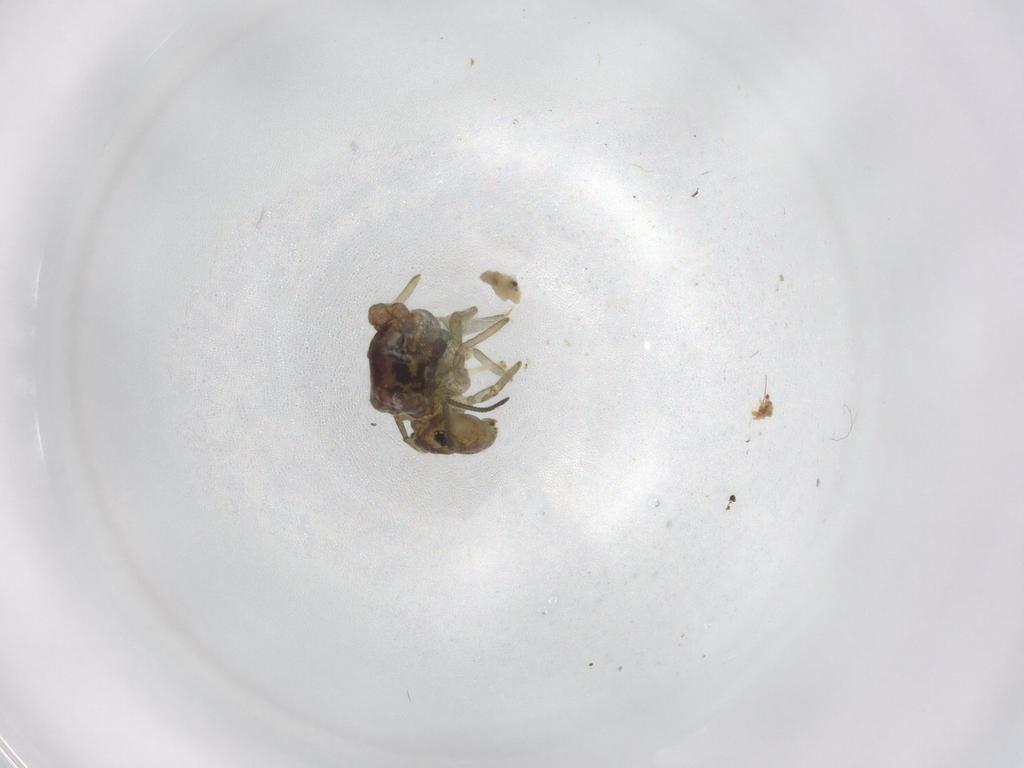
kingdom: Animalia
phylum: Arthropoda
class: Collembola
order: Symphypleona
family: Sminthuridae
